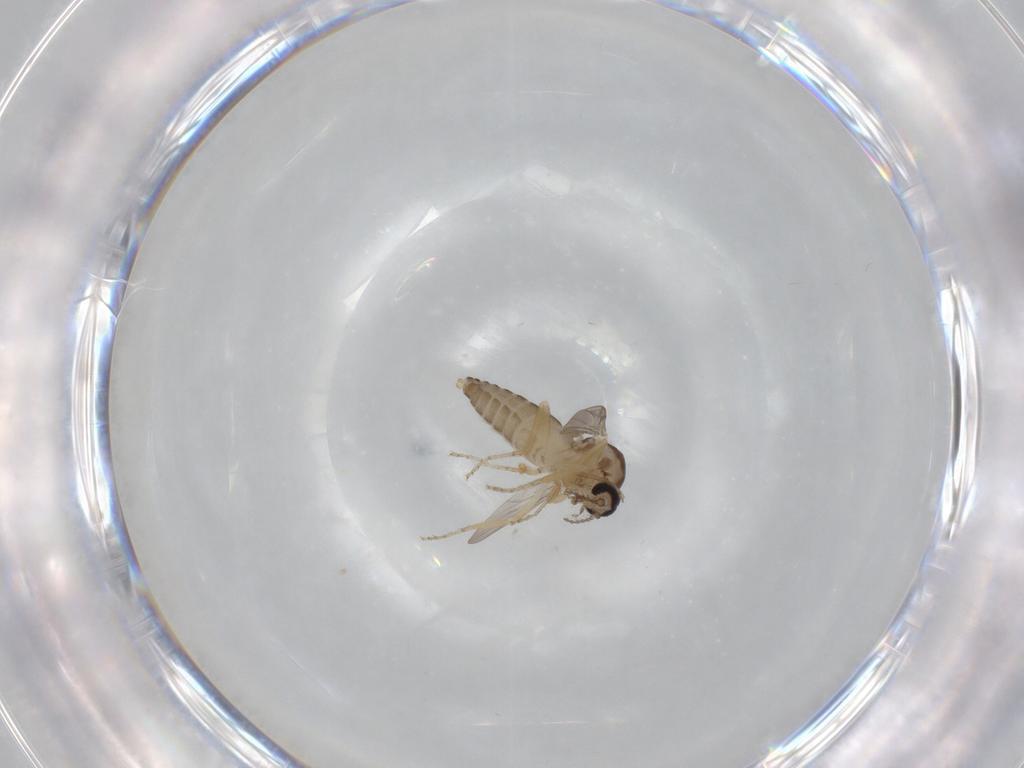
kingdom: Animalia
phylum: Arthropoda
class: Insecta
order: Diptera
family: Ceratopogonidae
